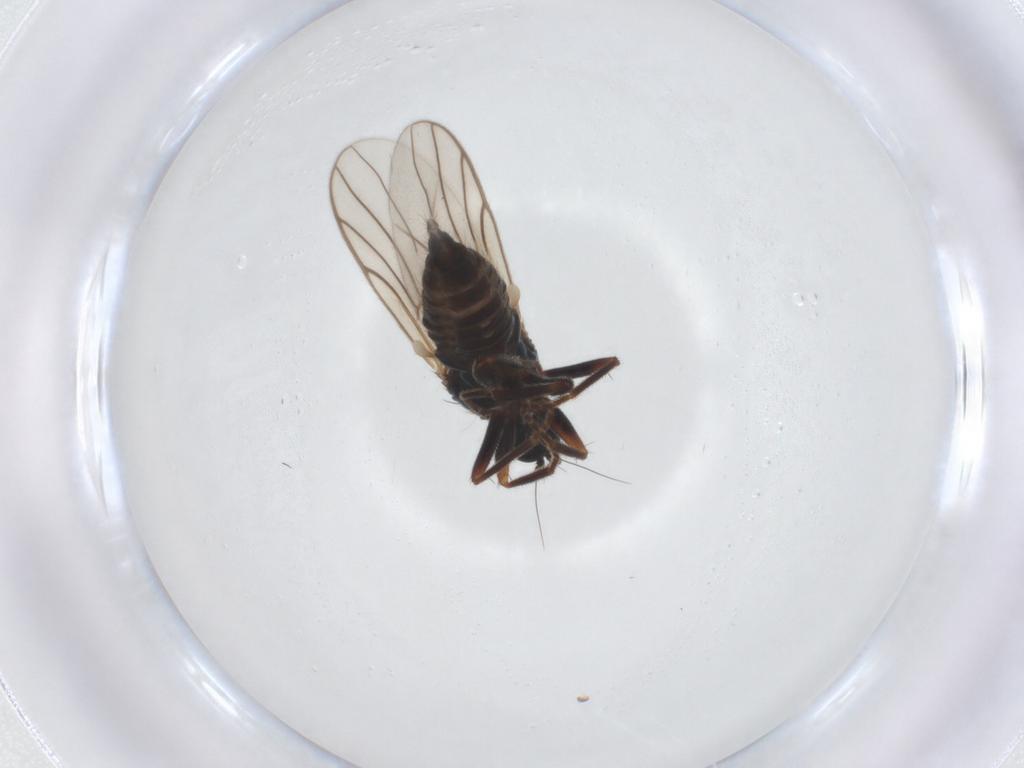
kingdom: Animalia
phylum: Arthropoda
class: Insecta
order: Diptera
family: Cecidomyiidae
